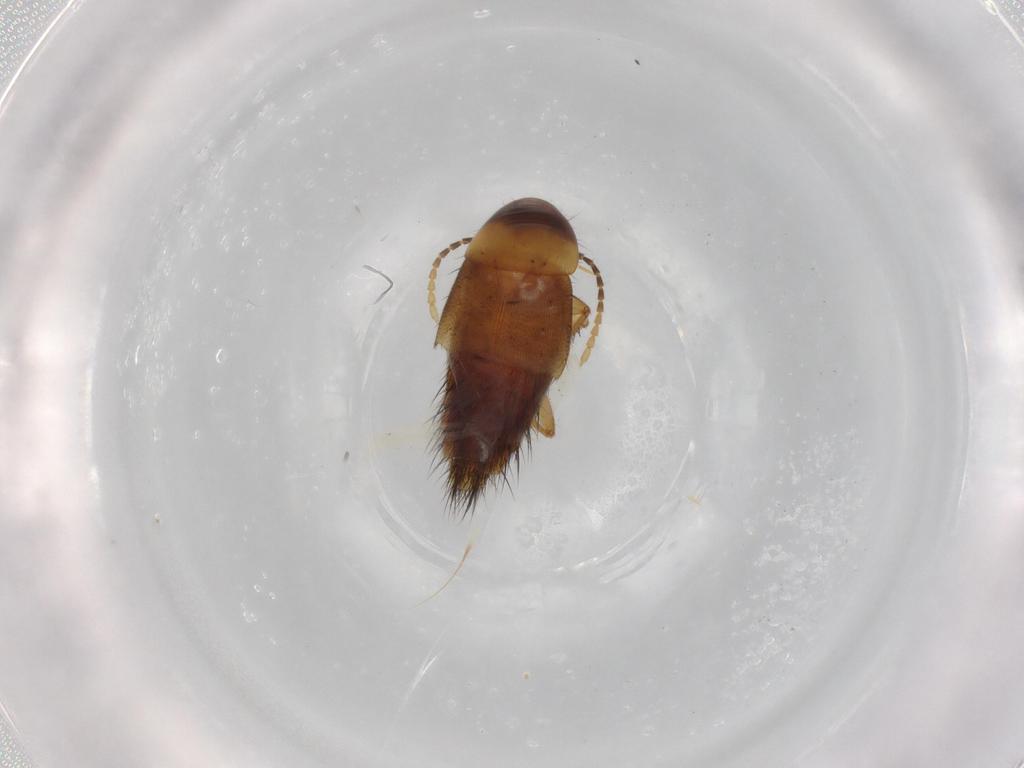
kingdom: Animalia
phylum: Arthropoda
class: Insecta
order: Coleoptera
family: Staphylinidae
